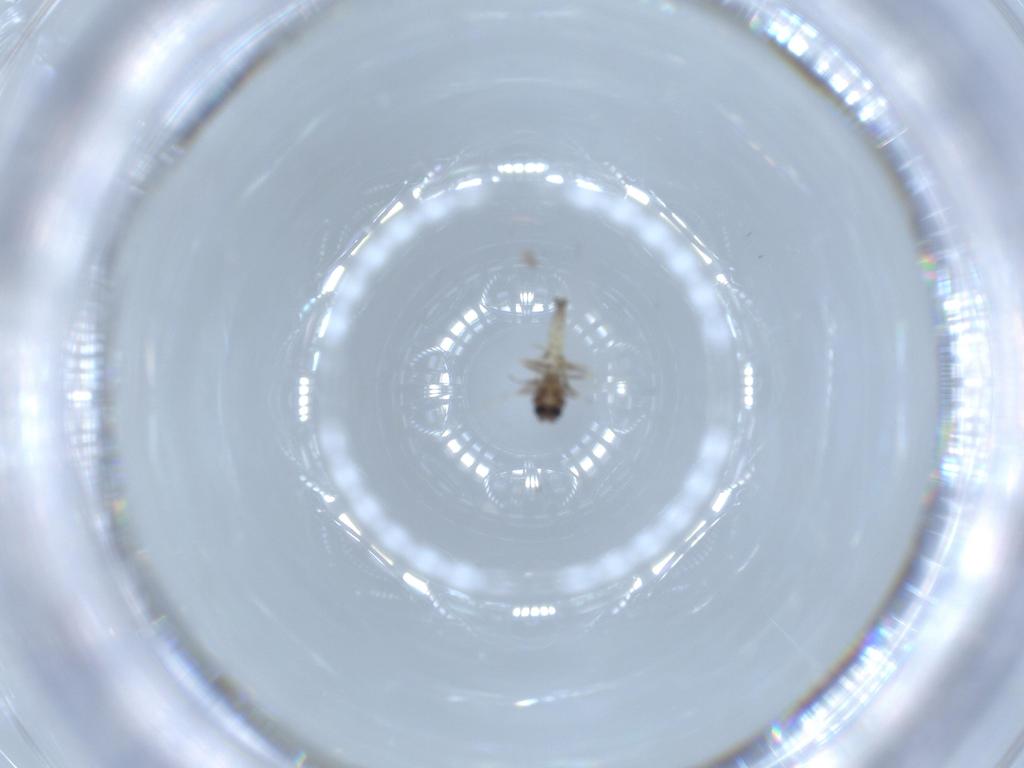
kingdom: Animalia
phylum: Arthropoda
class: Insecta
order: Diptera
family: Ceratopogonidae
